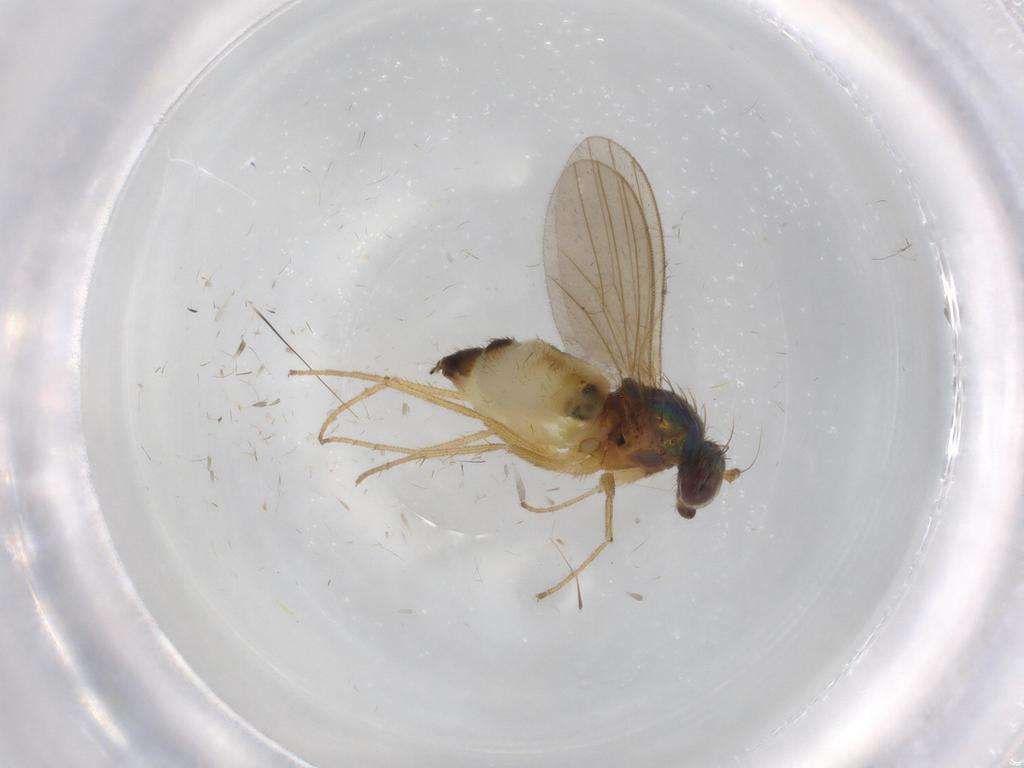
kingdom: Animalia
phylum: Arthropoda
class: Insecta
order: Diptera
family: Dolichopodidae
